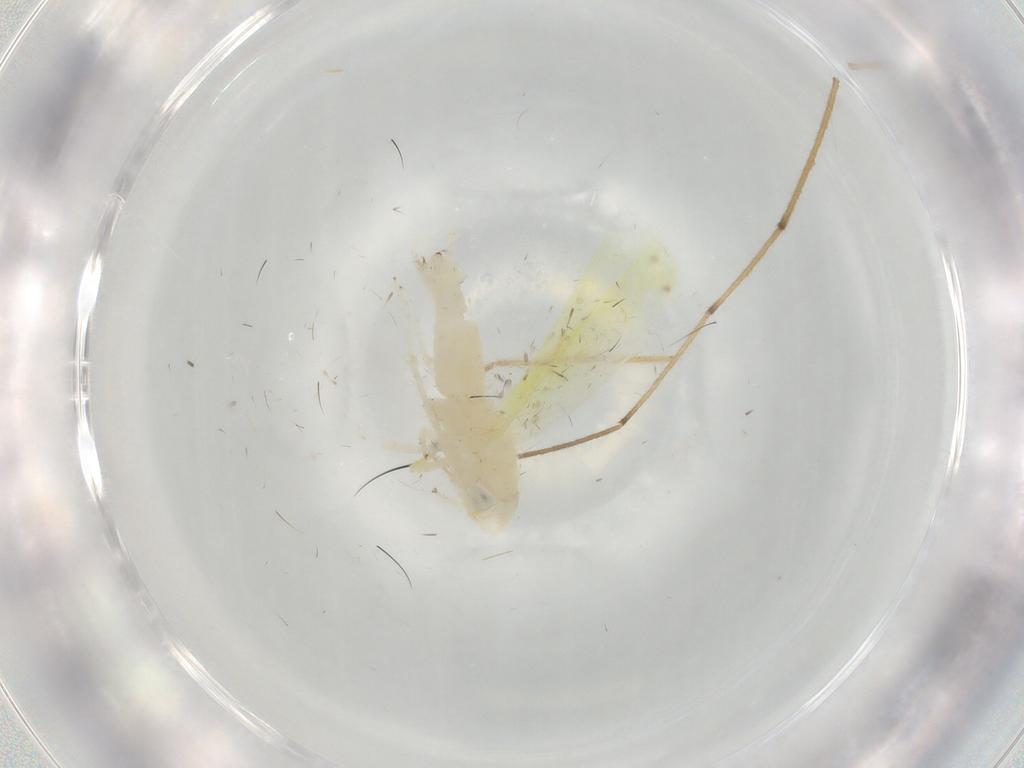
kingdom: Animalia
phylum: Arthropoda
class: Insecta
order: Hemiptera
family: Cicadellidae
